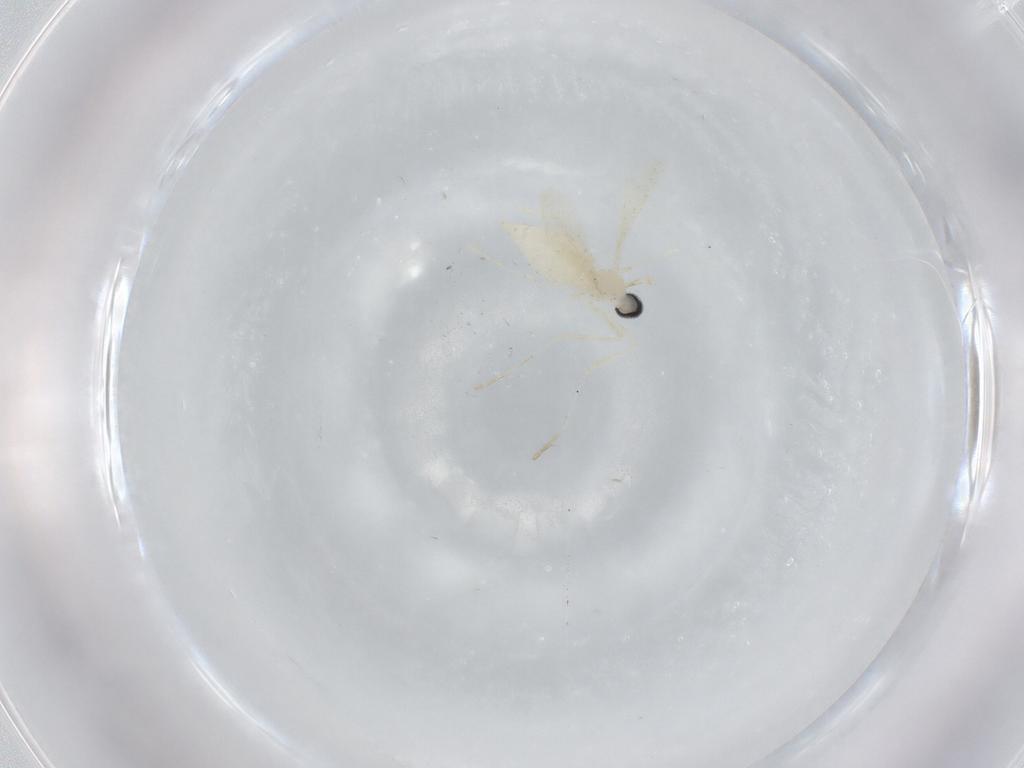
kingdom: Animalia
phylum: Arthropoda
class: Insecta
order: Diptera
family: Cecidomyiidae
